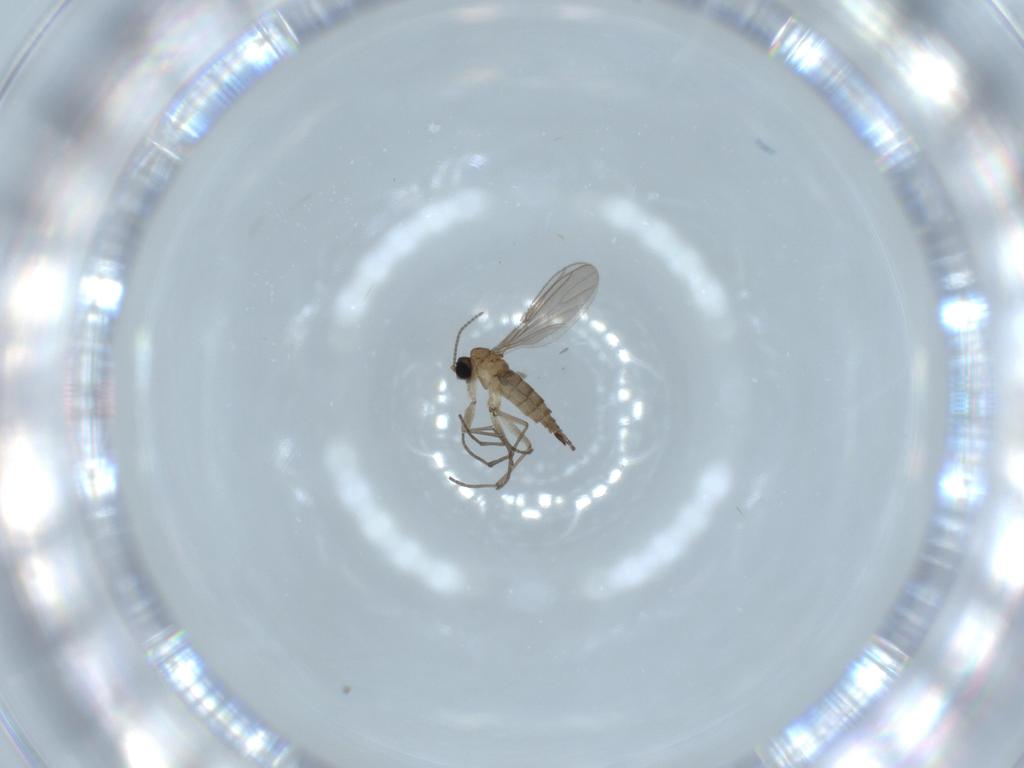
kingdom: Animalia
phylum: Arthropoda
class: Insecta
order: Diptera
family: Sciaridae
